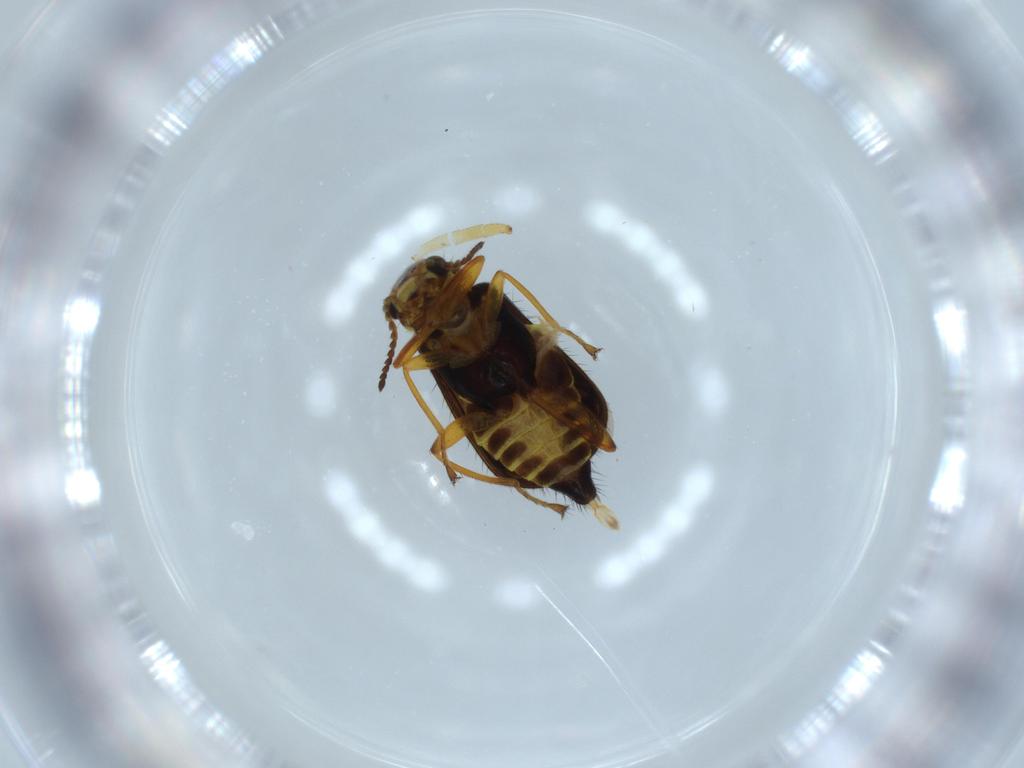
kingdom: Animalia
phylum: Arthropoda
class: Insecta
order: Coleoptera
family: Melyridae
